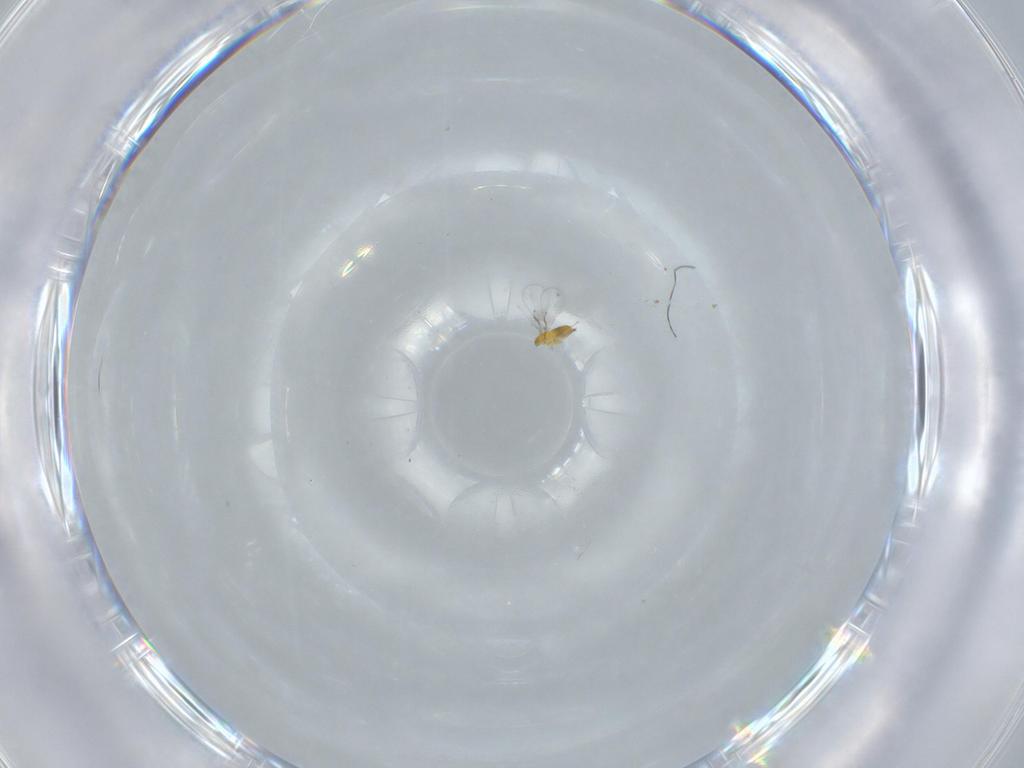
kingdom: Animalia
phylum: Arthropoda
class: Insecta
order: Hymenoptera
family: Trichogrammatidae
